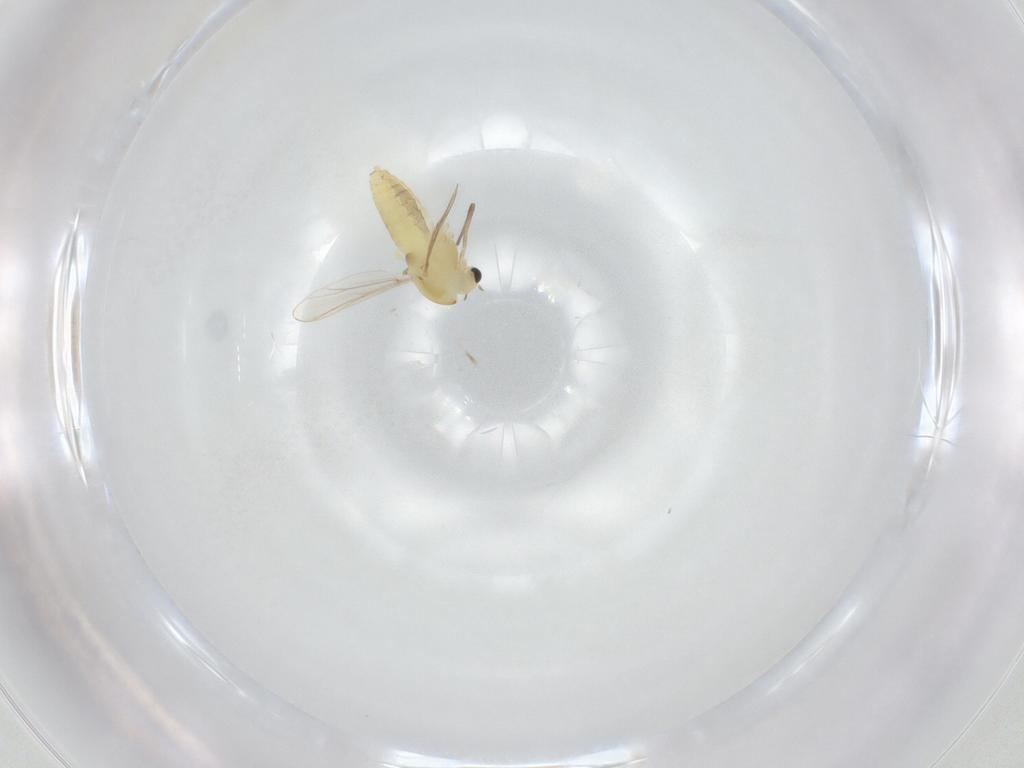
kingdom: Animalia
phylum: Arthropoda
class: Insecta
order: Diptera
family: Chironomidae
